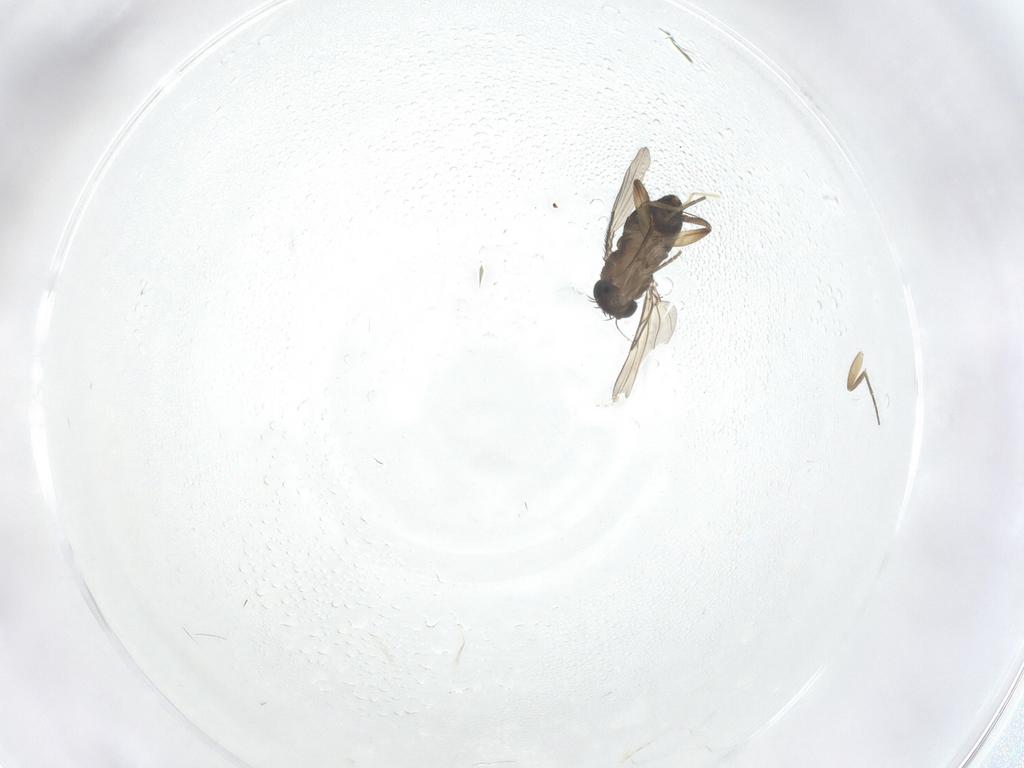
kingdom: Animalia
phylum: Arthropoda
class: Insecta
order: Diptera
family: Phoridae
